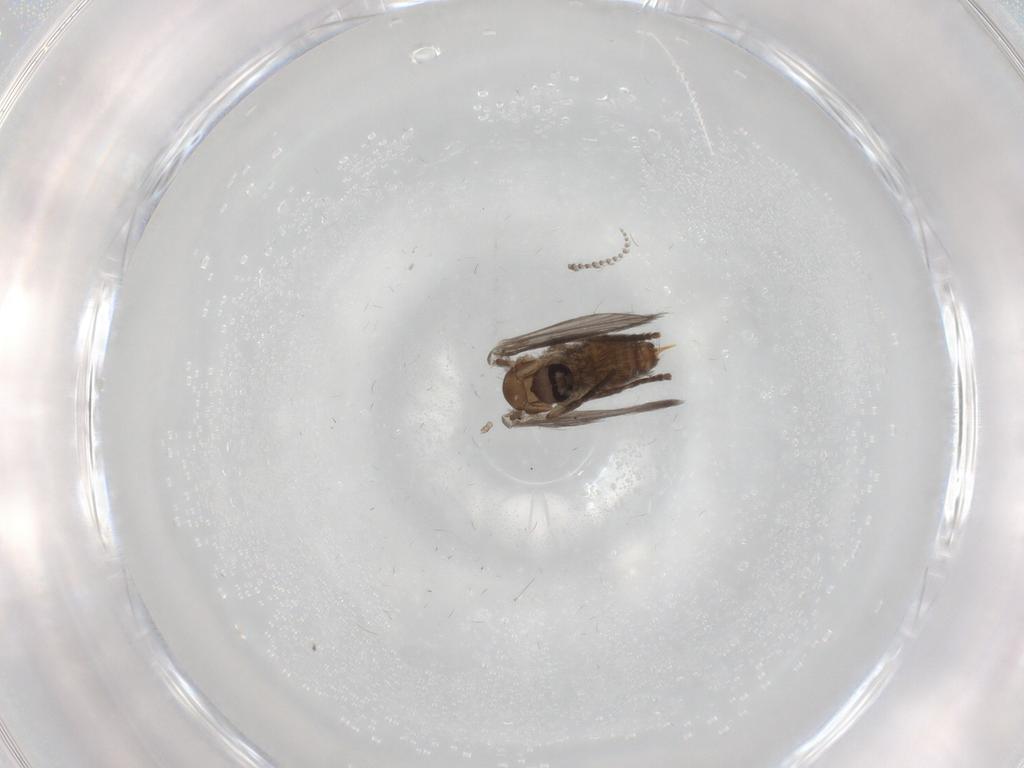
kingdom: Animalia
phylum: Arthropoda
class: Insecta
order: Diptera
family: Psychodidae
